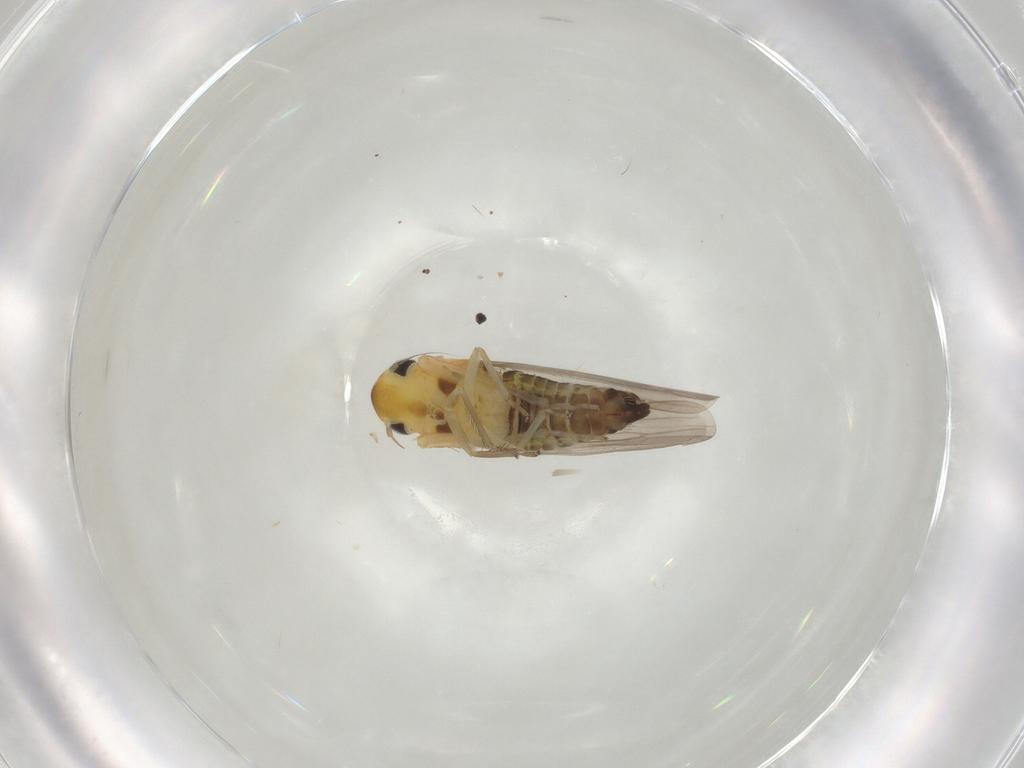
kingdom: Animalia
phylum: Arthropoda
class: Insecta
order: Hemiptera
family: Cicadellidae
